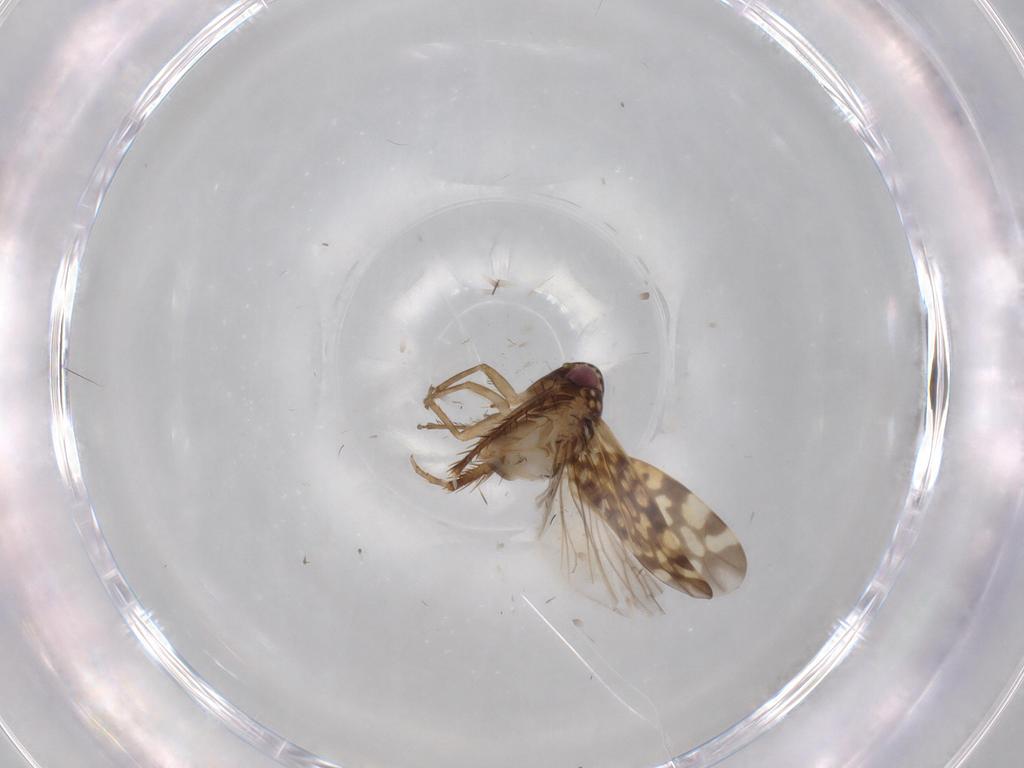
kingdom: Animalia
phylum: Arthropoda
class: Insecta
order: Hemiptera
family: Cicadellidae
